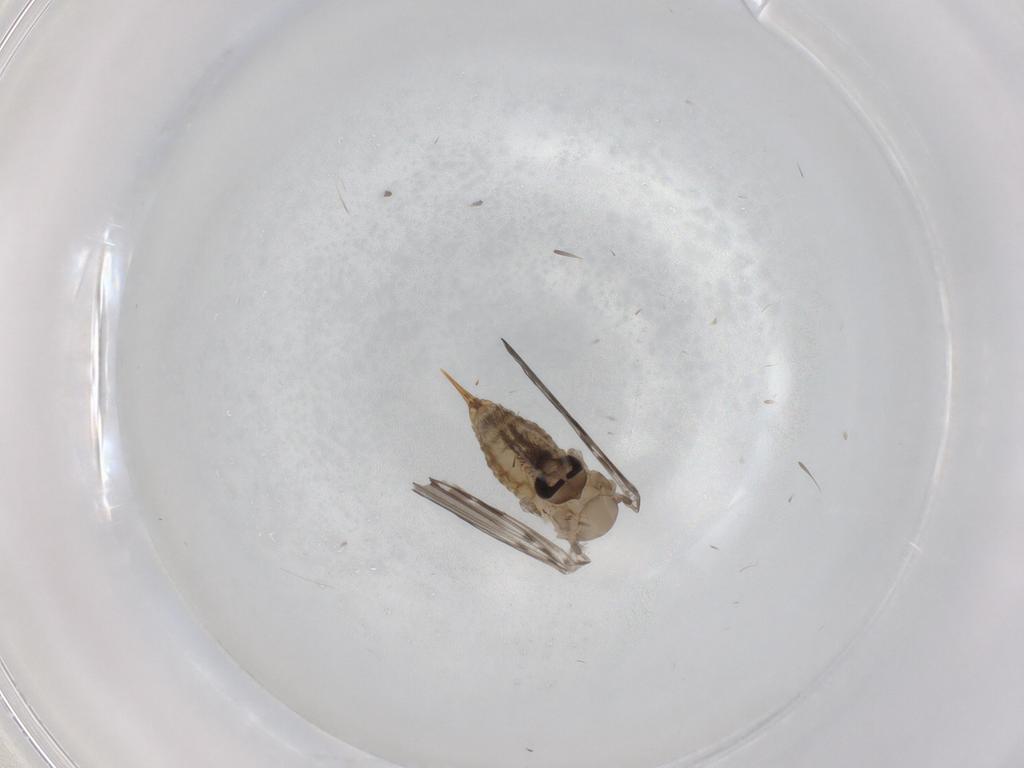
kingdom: Animalia
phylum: Arthropoda
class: Insecta
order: Diptera
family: Psychodidae
